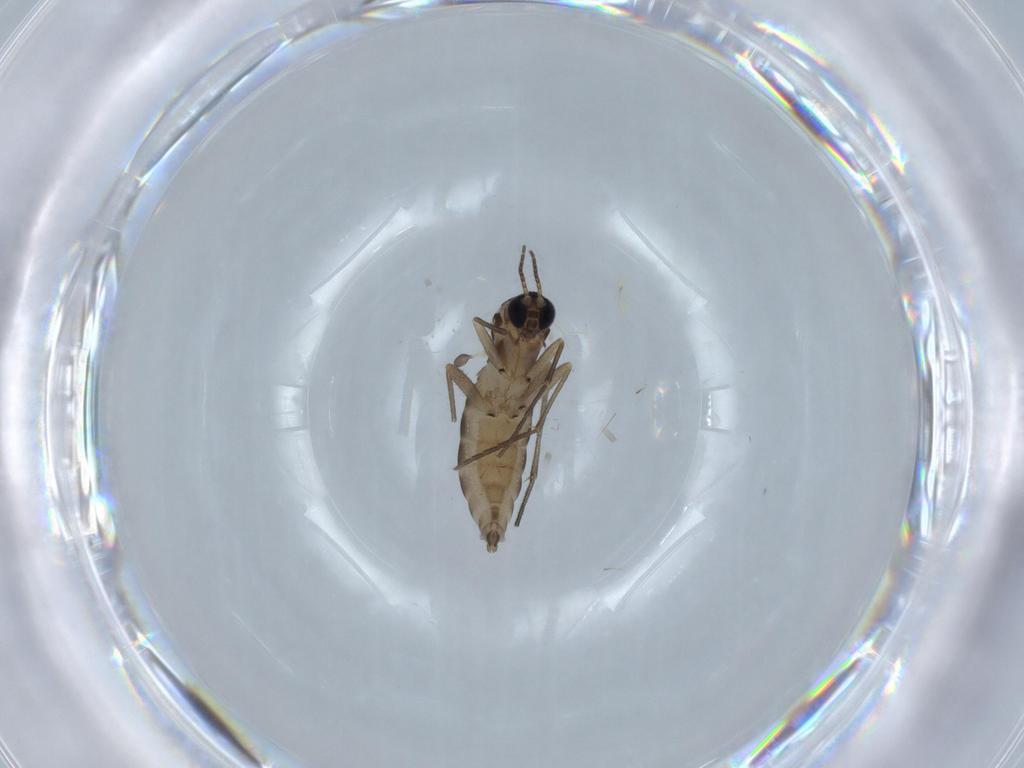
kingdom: Animalia
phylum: Arthropoda
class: Insecta
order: Diptera
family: Sciaridae
